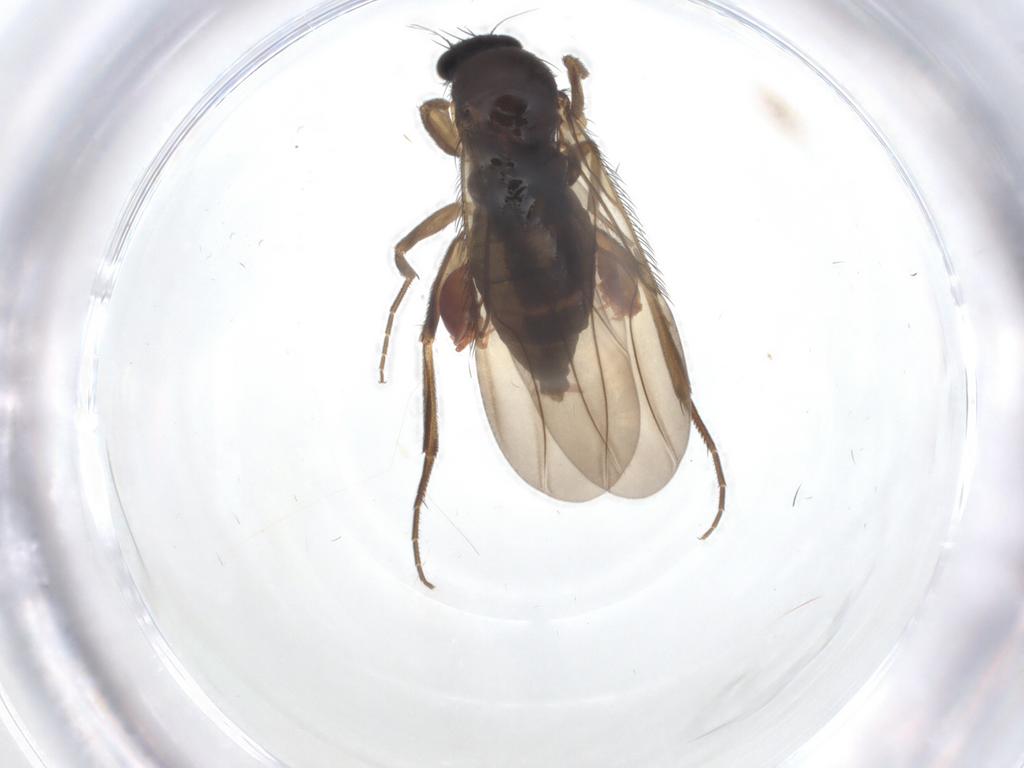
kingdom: Animalia
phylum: Arthropoda
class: Insecta
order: Diptera
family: Phoridae
